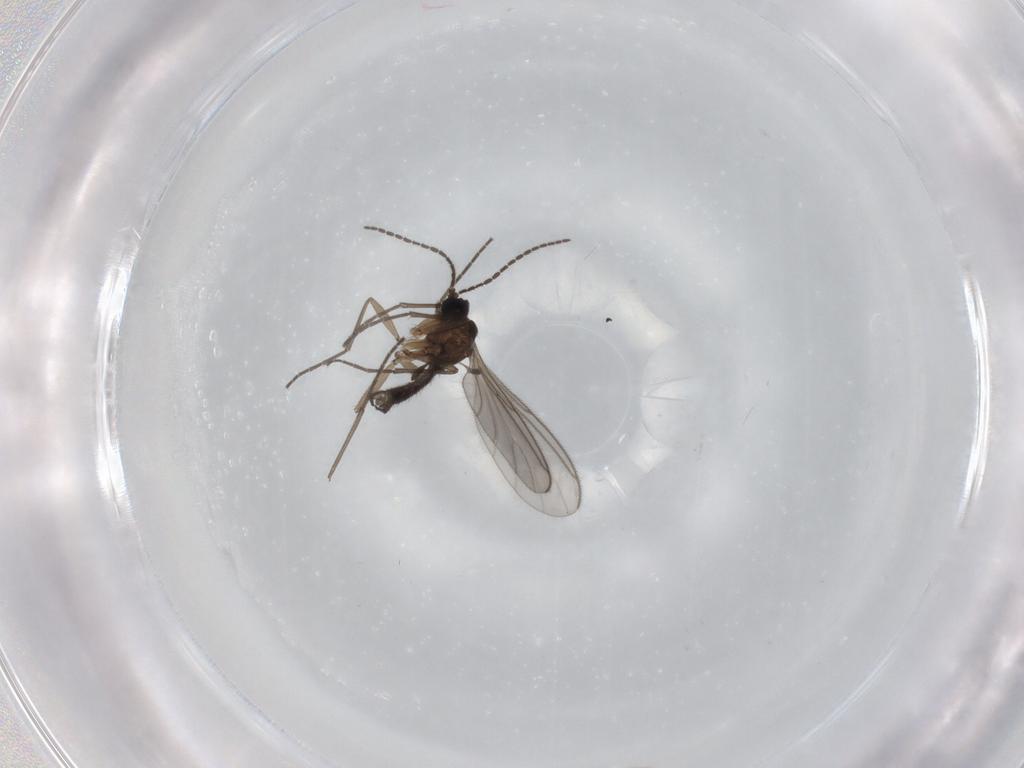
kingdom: Animalia
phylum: Arthropoda
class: Insecta
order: Diptera
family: Sciaridae
